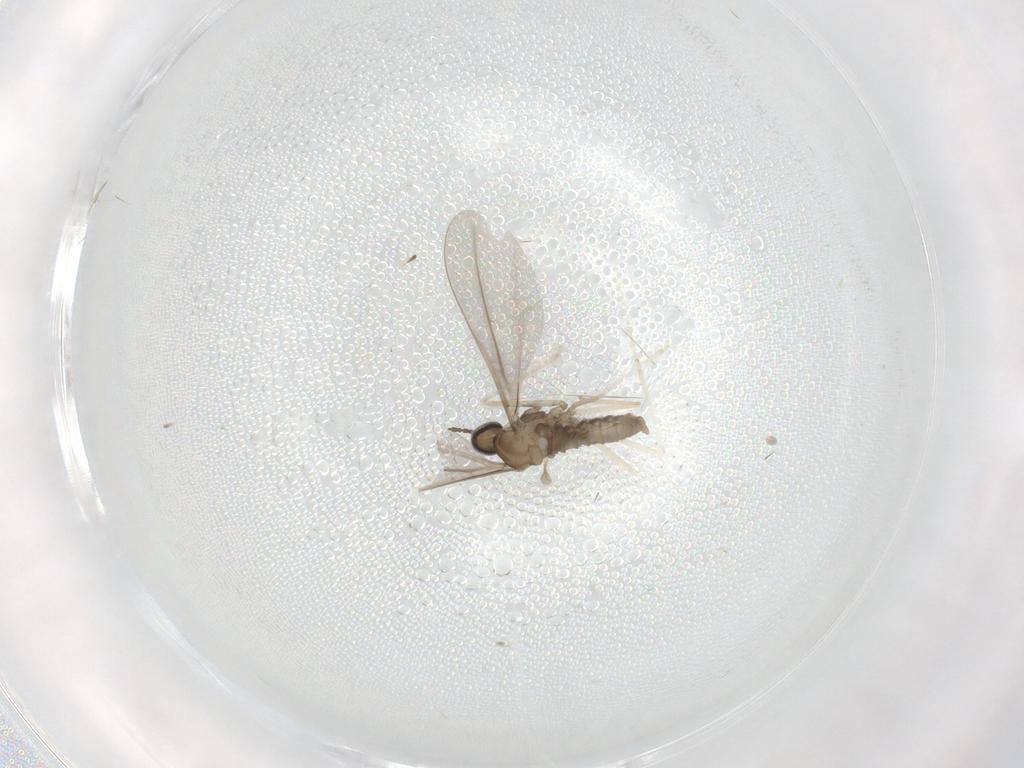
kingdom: Animalia
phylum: Arthropoda
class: Insecta
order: Diptera
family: Cecidomyiidae
